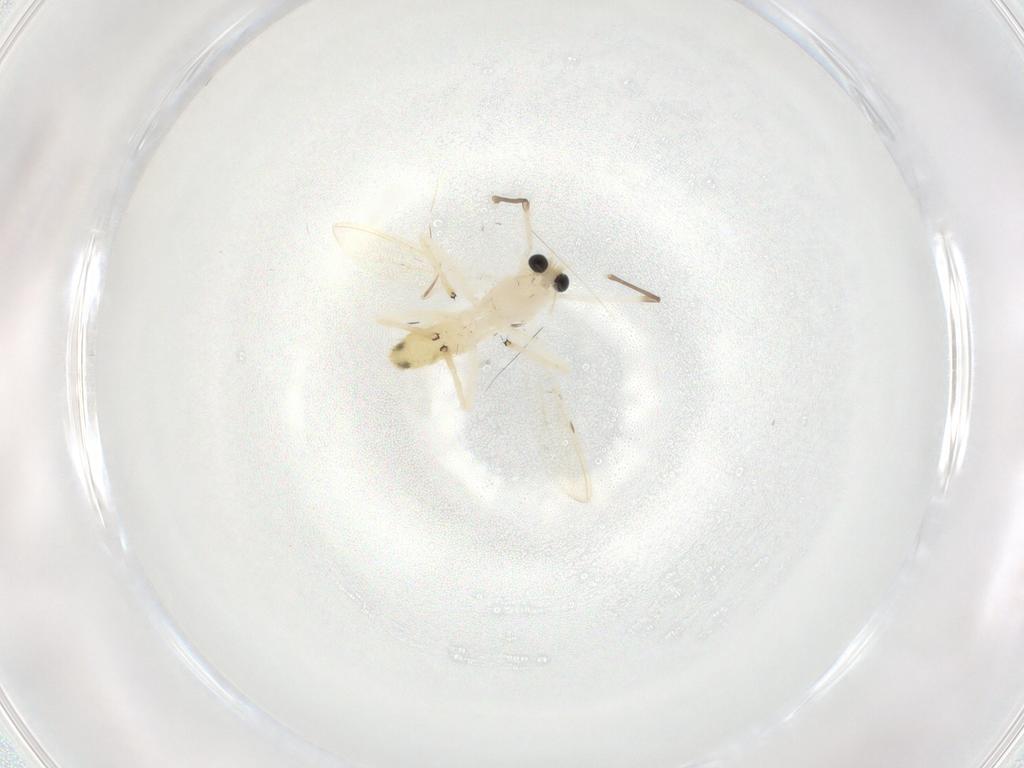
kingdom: Animalia
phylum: Arthropoda
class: Insecta
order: Diptera
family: Chironomidae
